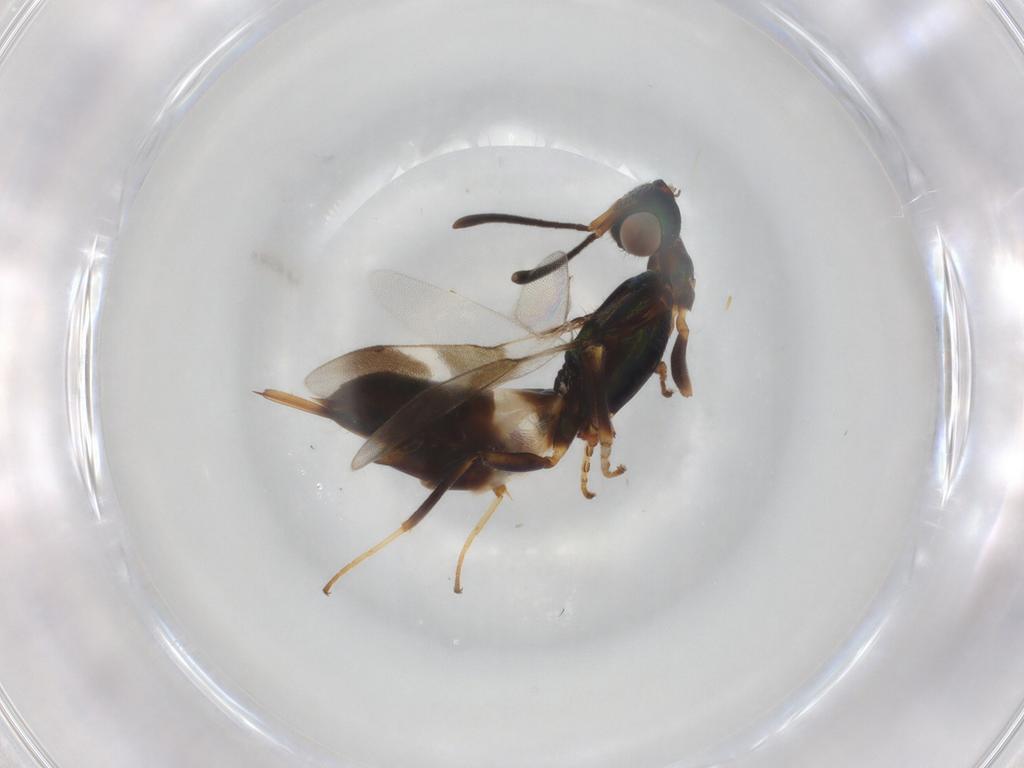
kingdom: Animalia
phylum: Arthropoda
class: Insecta
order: Hymenoptera
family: Eupelmidae
